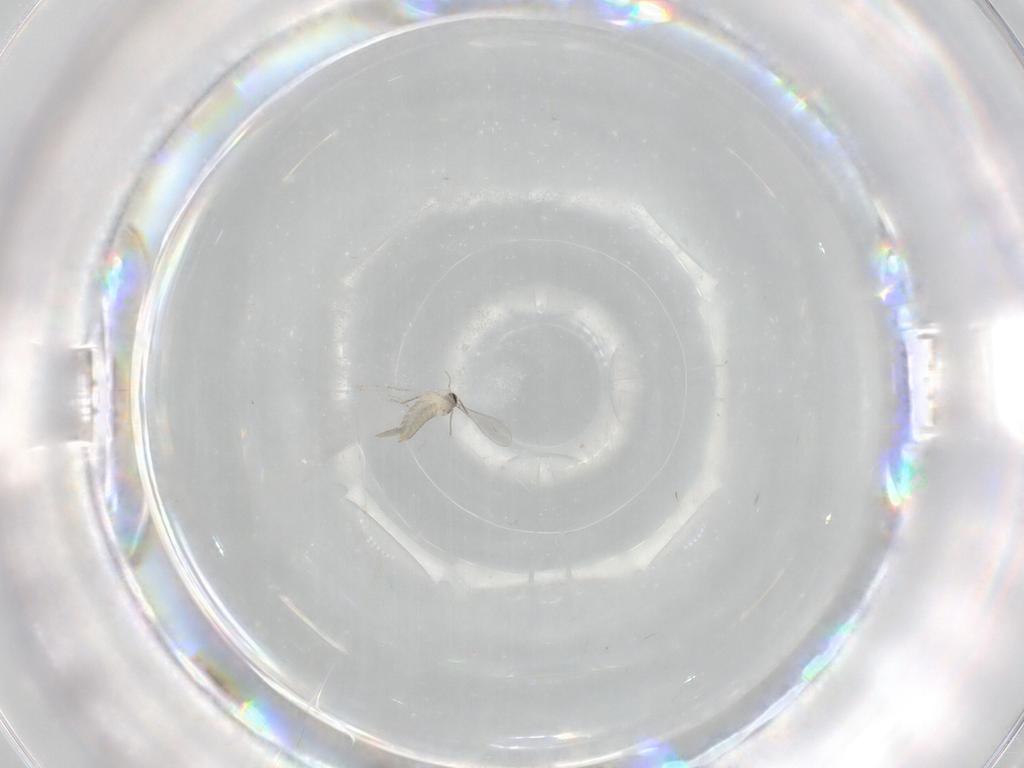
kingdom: Animalia
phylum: Arthropoda
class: Insecta
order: Diptera
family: Cecidomyiidae
